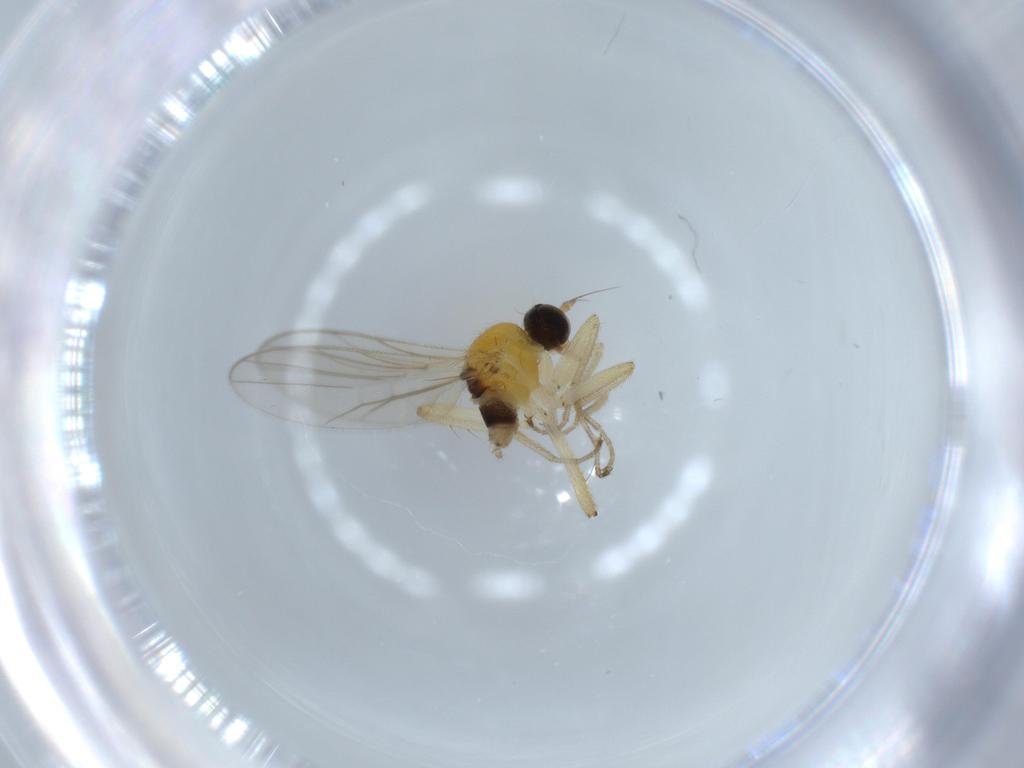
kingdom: Animalia
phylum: Arthropoda
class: Insecta
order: Diptera
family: Hybotidae
